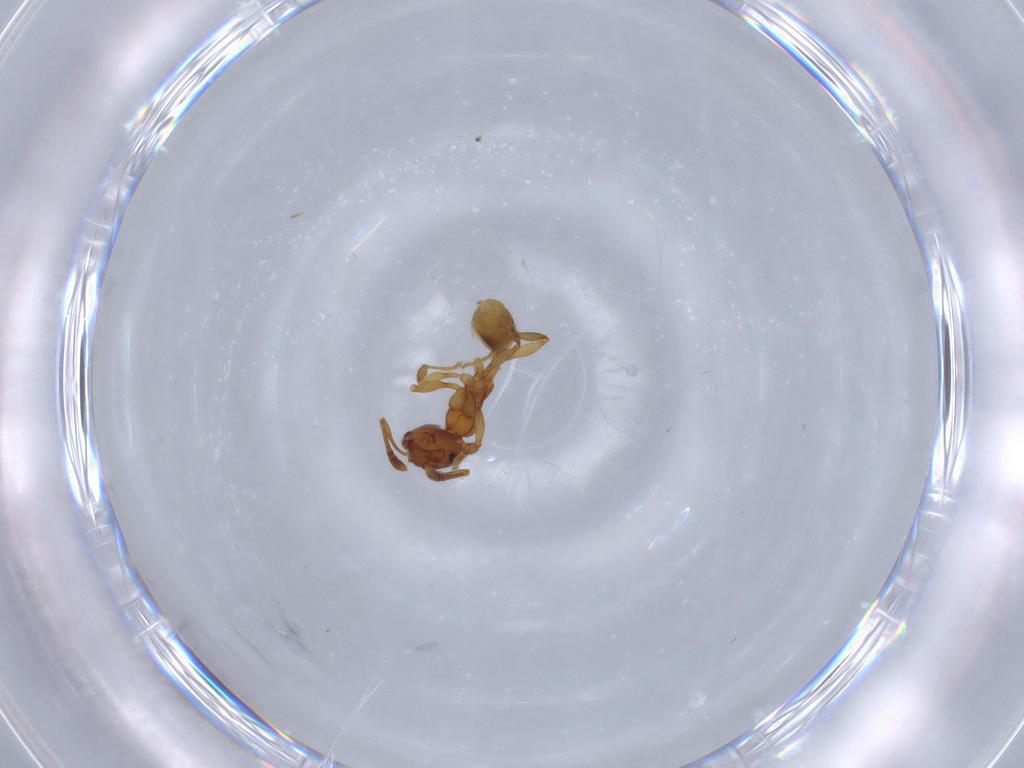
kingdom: Animalia
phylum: Arthropoda
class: Insecta
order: Hymenoptera
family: Formicidae
